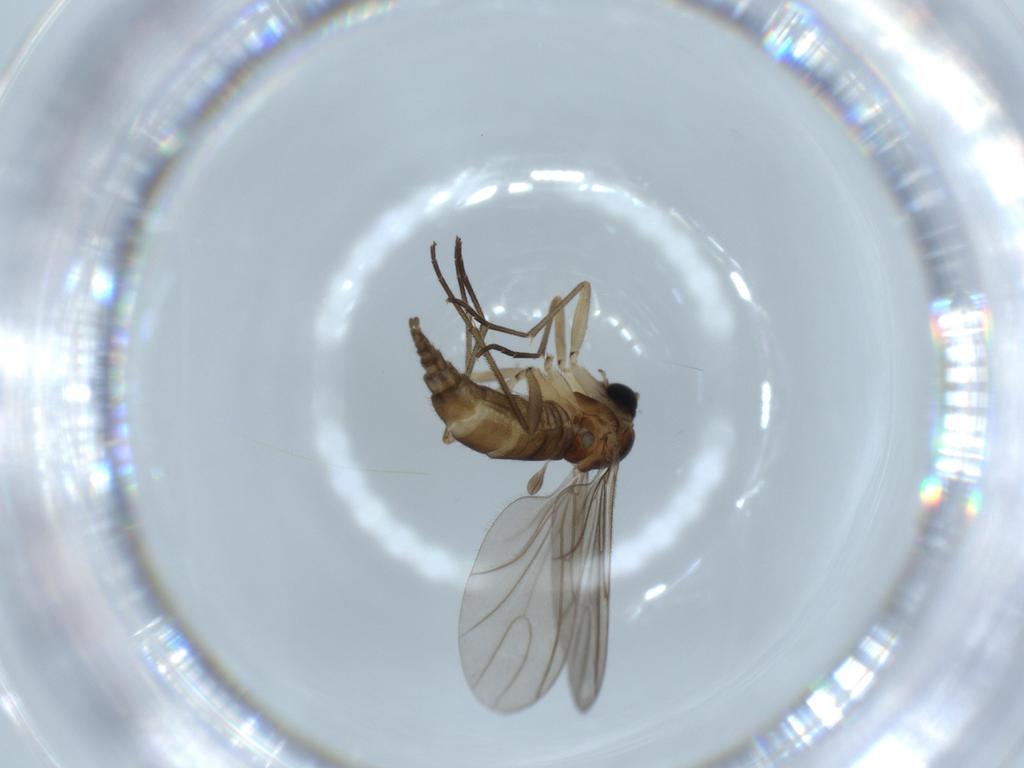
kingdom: Animalia
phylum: Arthropoda
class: Insecta
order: Diptera
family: Sciaridae
